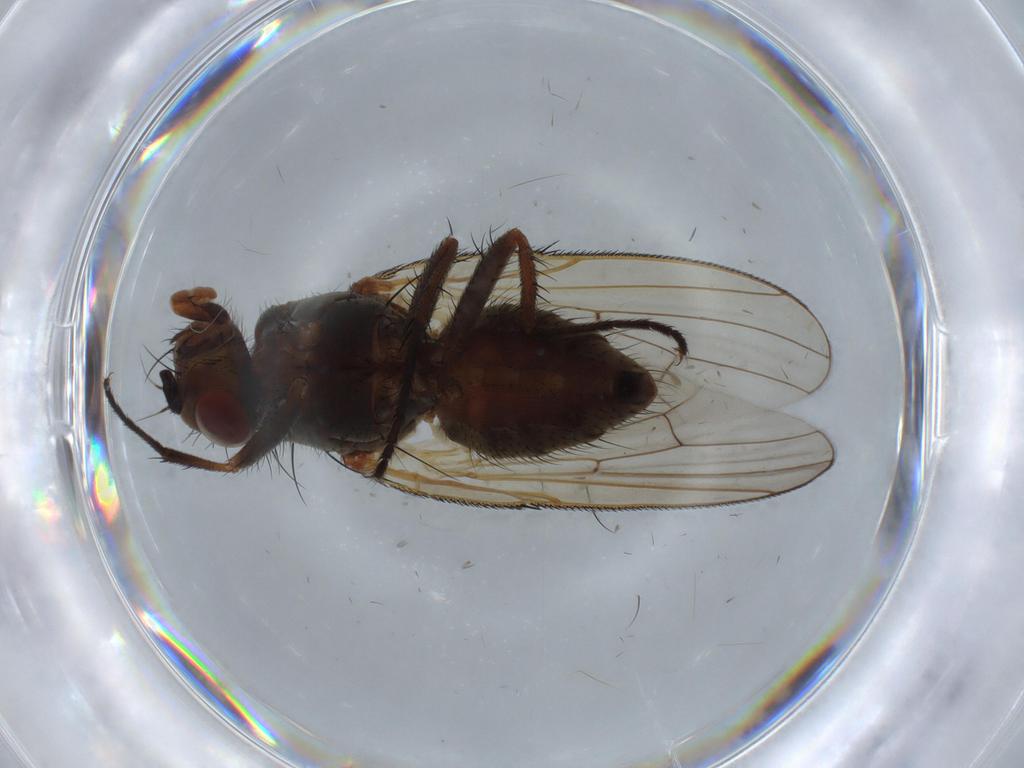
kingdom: Animalia
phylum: Arthropoda
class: Insecta
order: Diptera
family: Anthomyiidae
